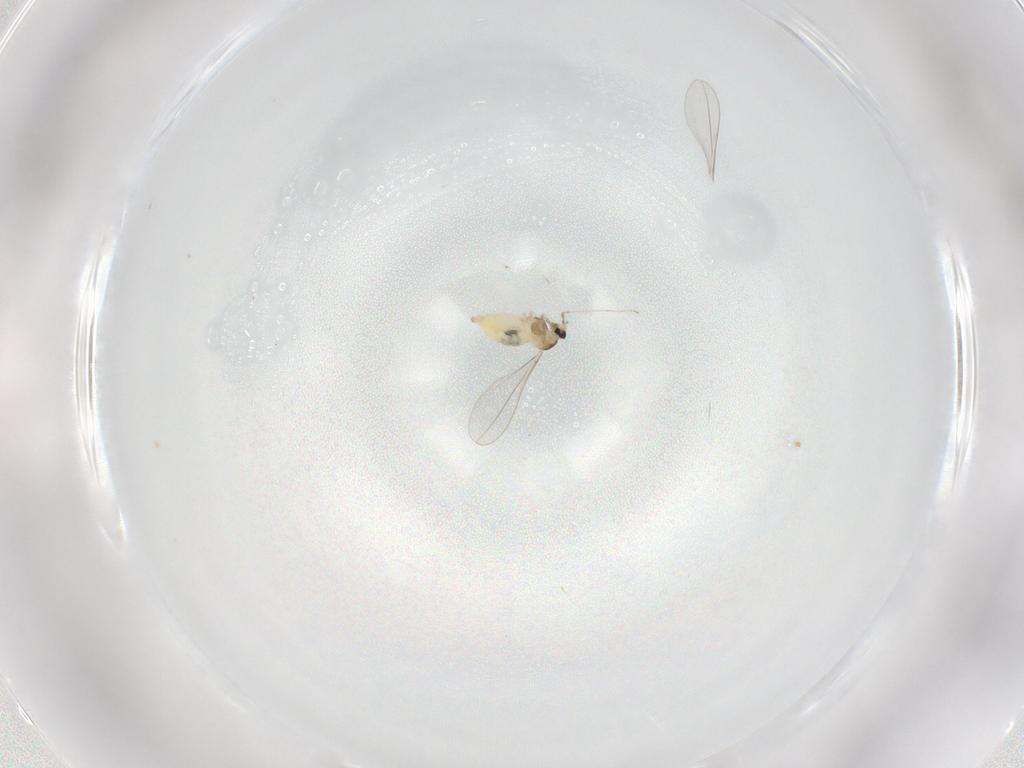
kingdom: Animalia
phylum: Arthropoda
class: Insecta
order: Diptera
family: Cecidomyiidae
